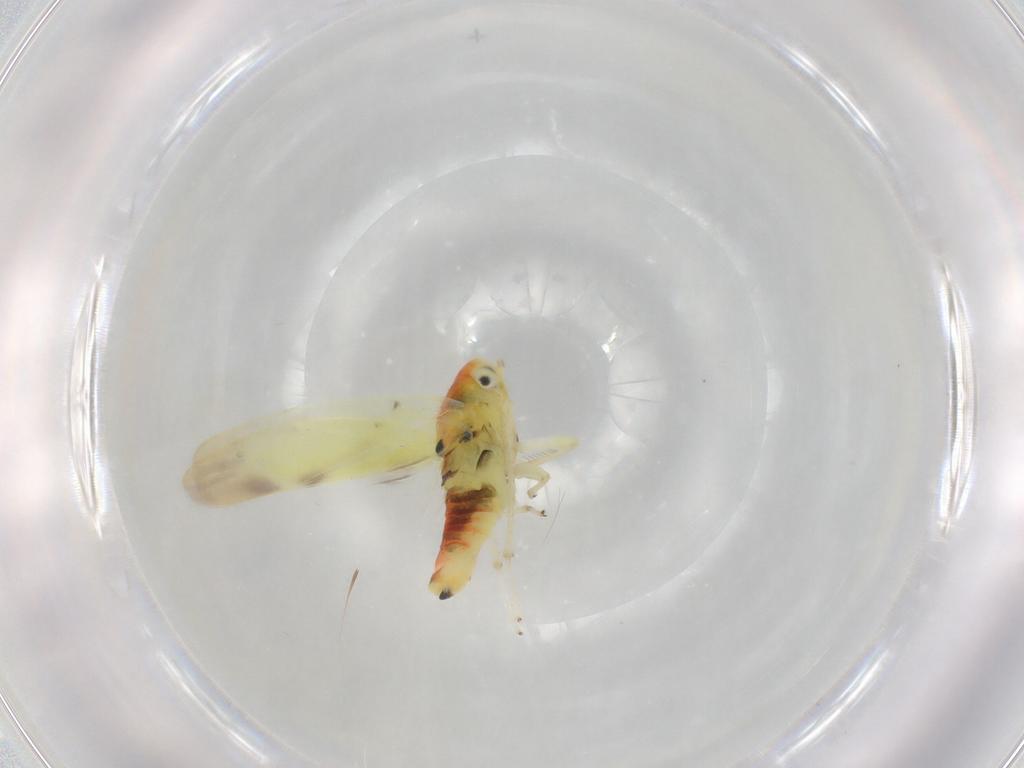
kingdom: Animalia
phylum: Arthropoda
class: Insecta
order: Hemiptera
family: Cicadellidae
